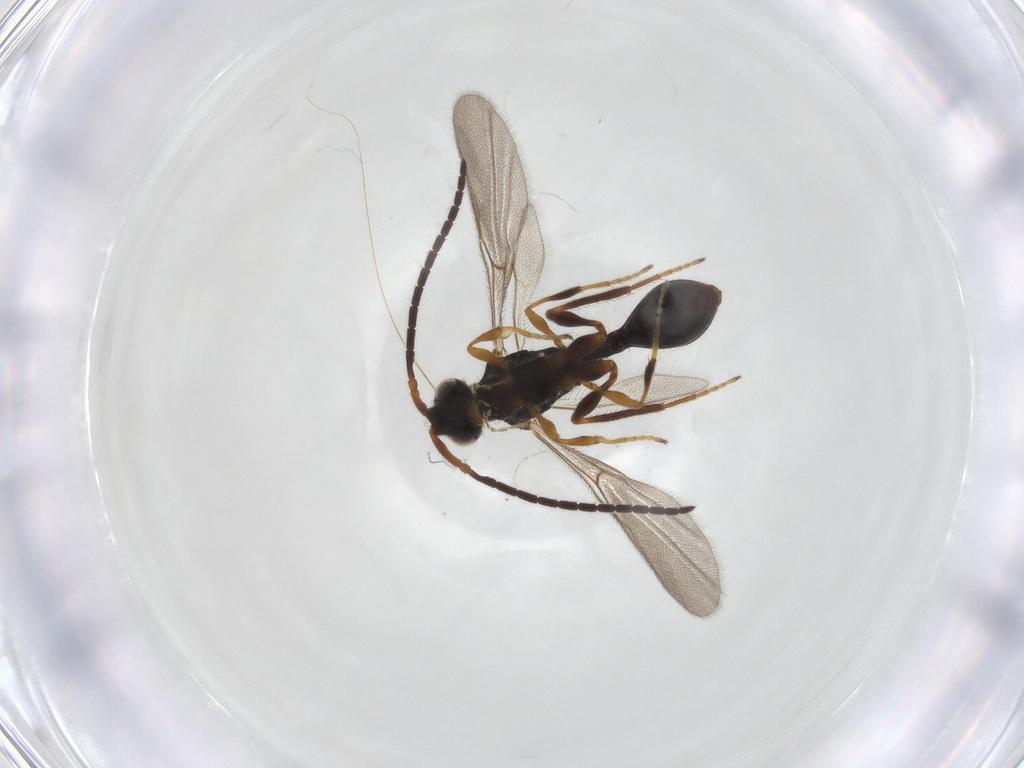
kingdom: Animalia
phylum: Arthropoda
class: Insecta
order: Hymenoptera
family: Diapriidae
